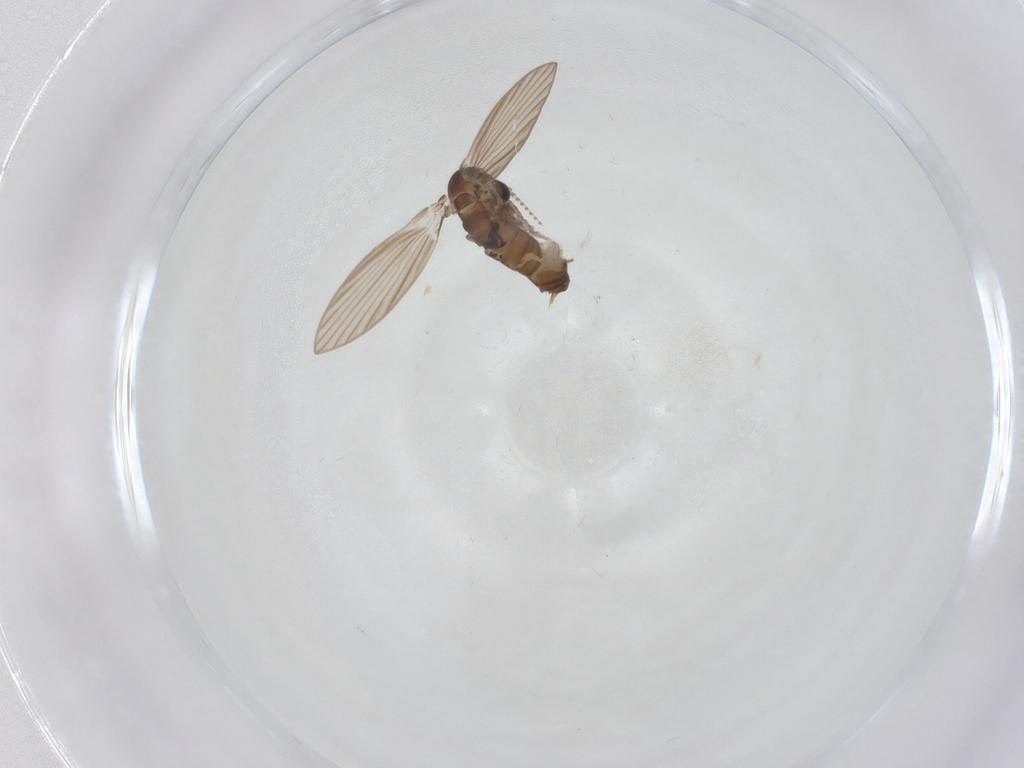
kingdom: Animalia
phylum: Arthropoda
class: Insecta
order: Diptera
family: Psychodidae
